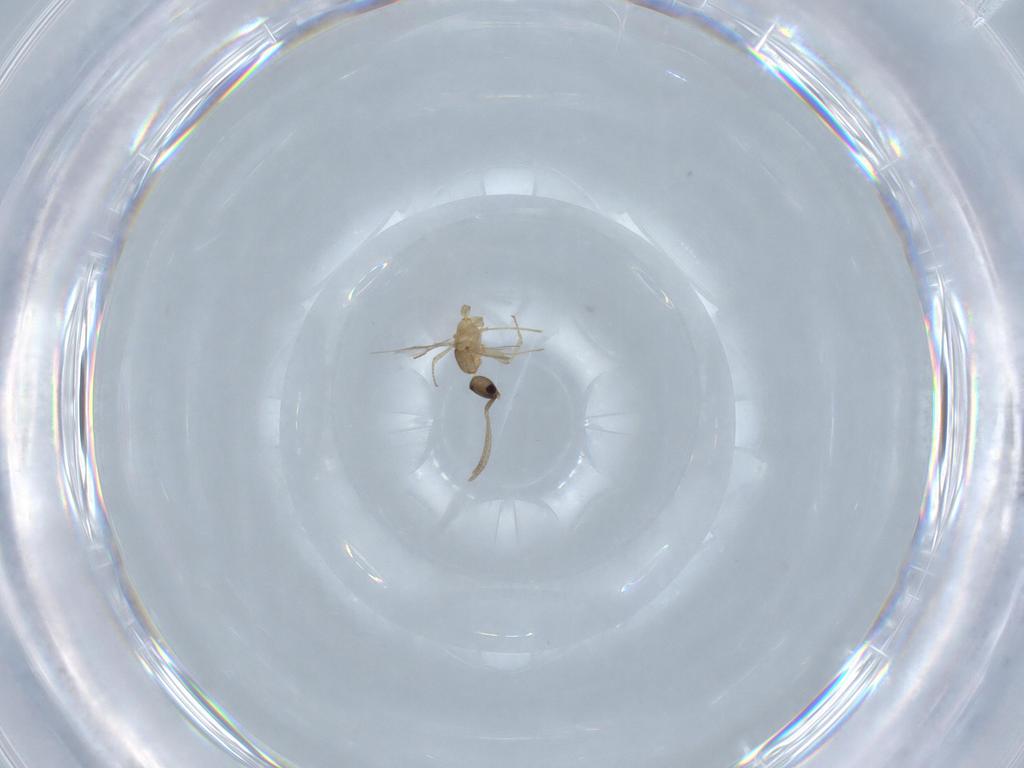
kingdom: Animalia
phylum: Arthropoda
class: Insecta
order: Hymenoptera
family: Formicidae
